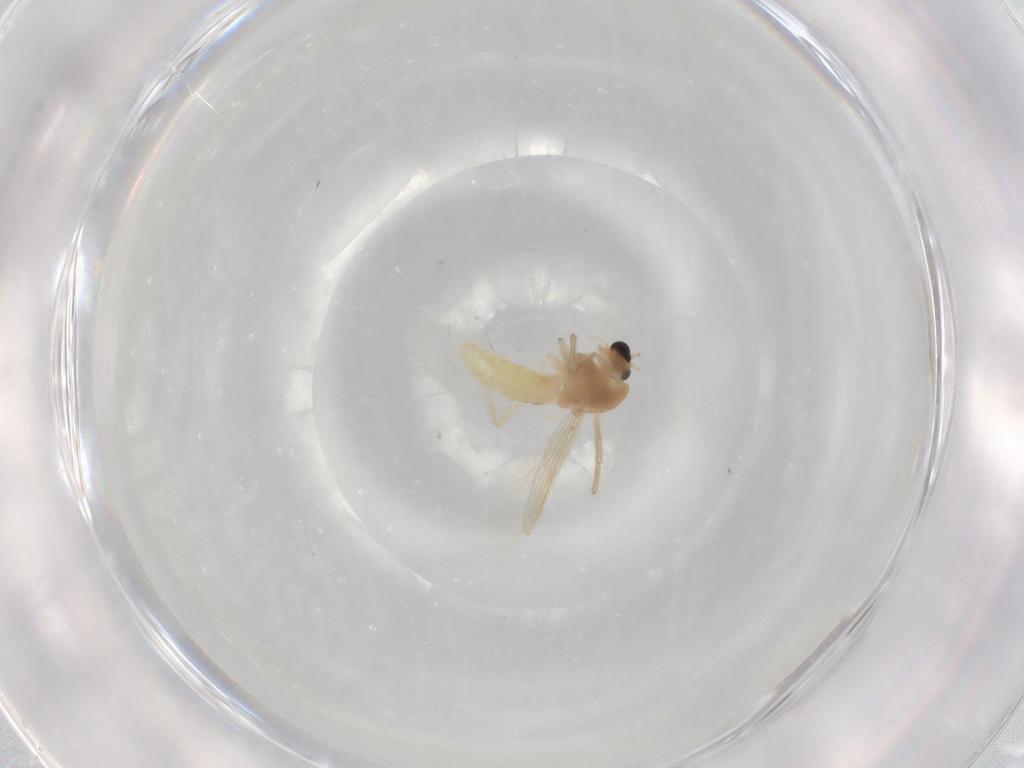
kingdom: Animalia
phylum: Arthropoda
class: Insecta
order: Diptera
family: Chironomidae
